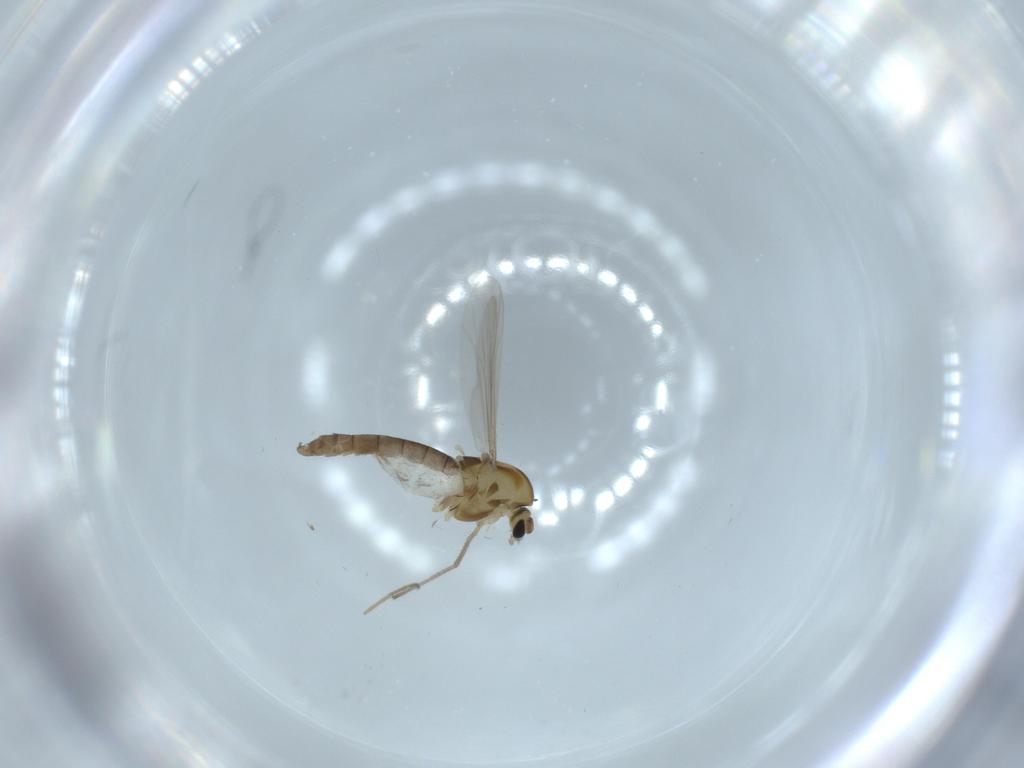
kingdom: Animalia
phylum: Arthropoda
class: Insecta
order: Diptera
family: Chironomidae
